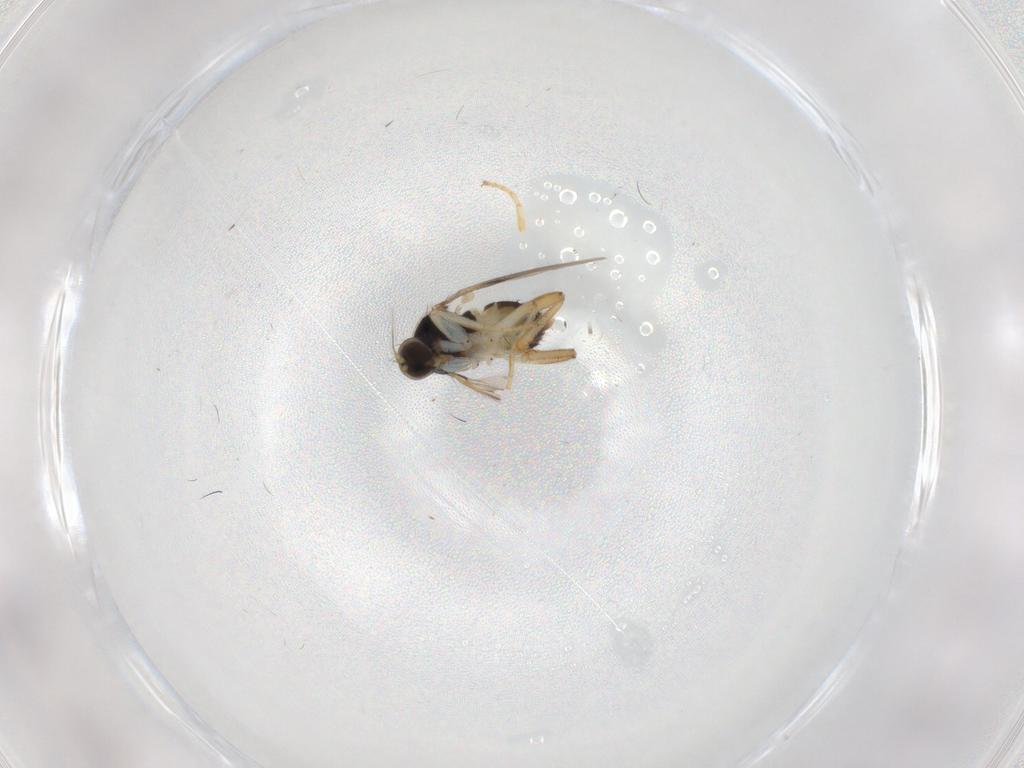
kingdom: Animalia
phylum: Arthropoda
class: Insecta
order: Diptera
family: Hybotidae
